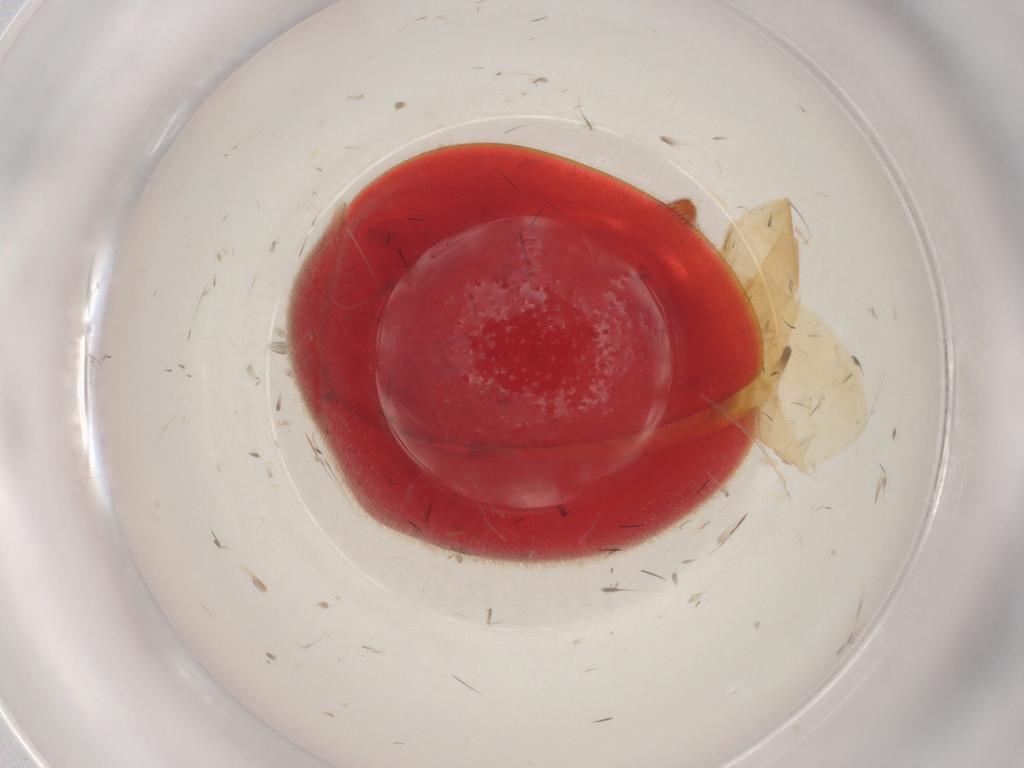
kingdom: Animalia
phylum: Arthropoda
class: Insecta
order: Coleoptera
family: Coccinellidae
